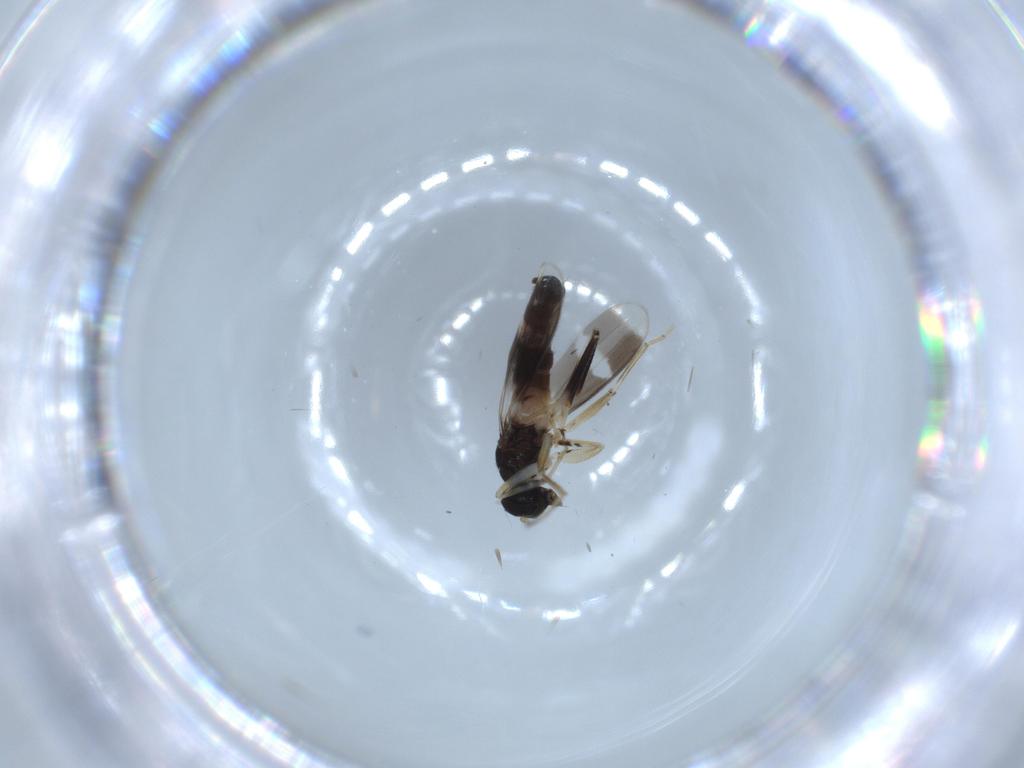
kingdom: Animalia
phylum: Arthropoda
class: Insecta
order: Diptera
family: Hybotidae
